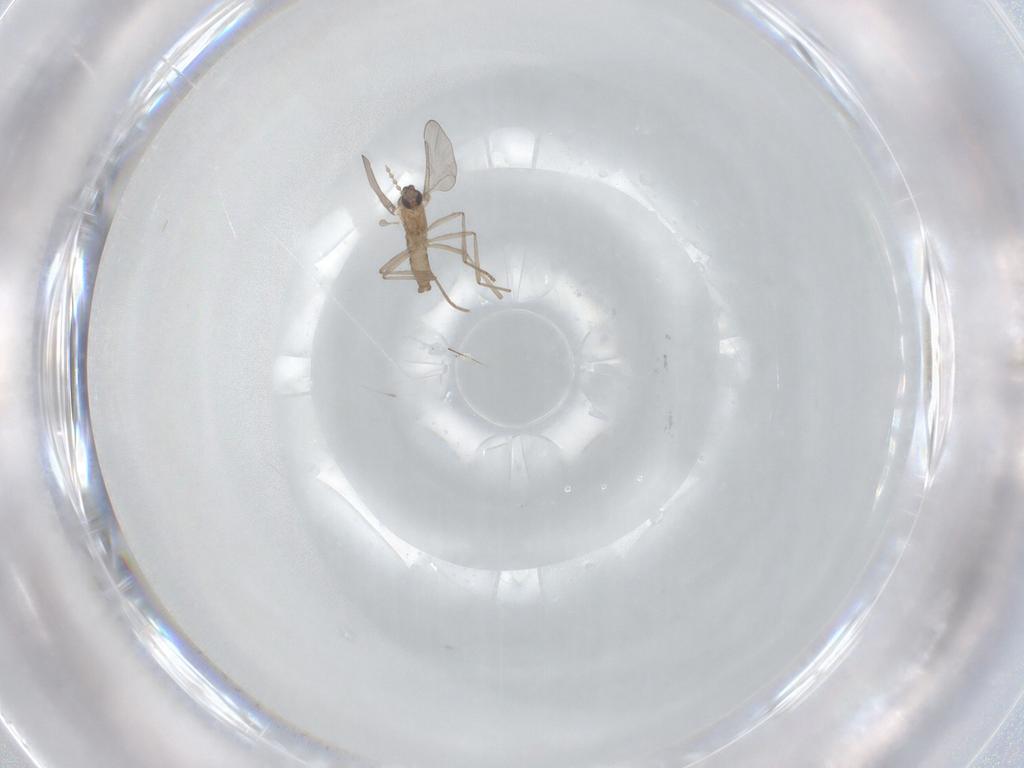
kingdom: Animalia
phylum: Arthropoda
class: Insecta
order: Diptera
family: Cecidomyiidae
